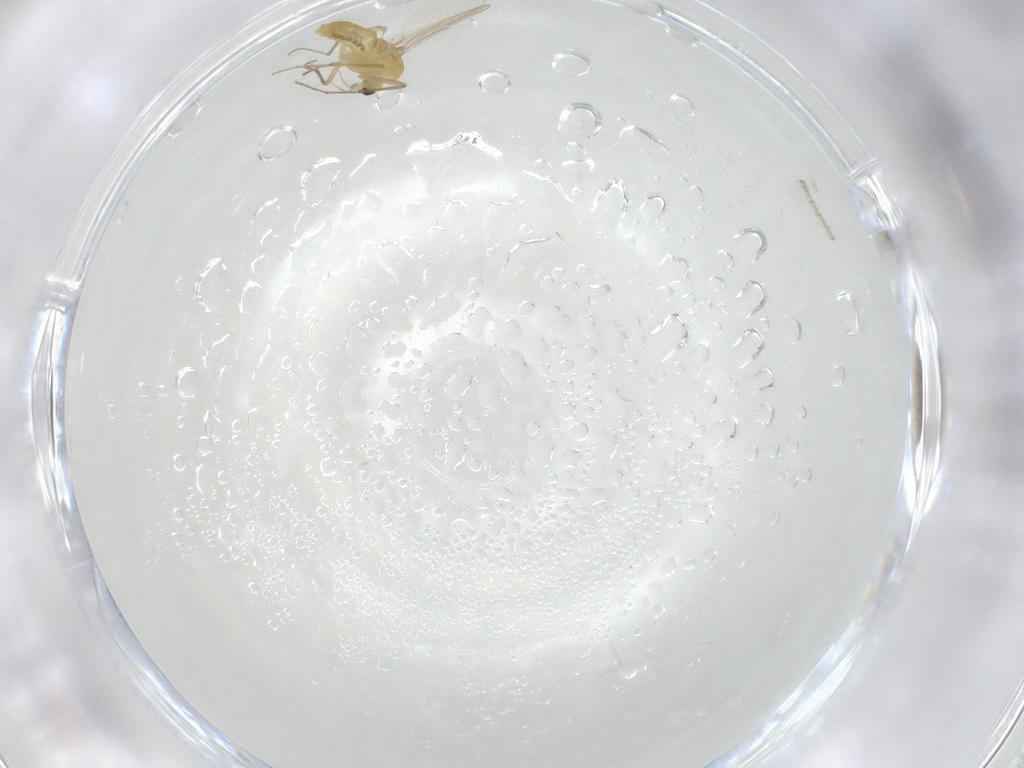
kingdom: Animalia
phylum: Arthropoda
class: Insecta
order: Diptera
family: Chironomidae
